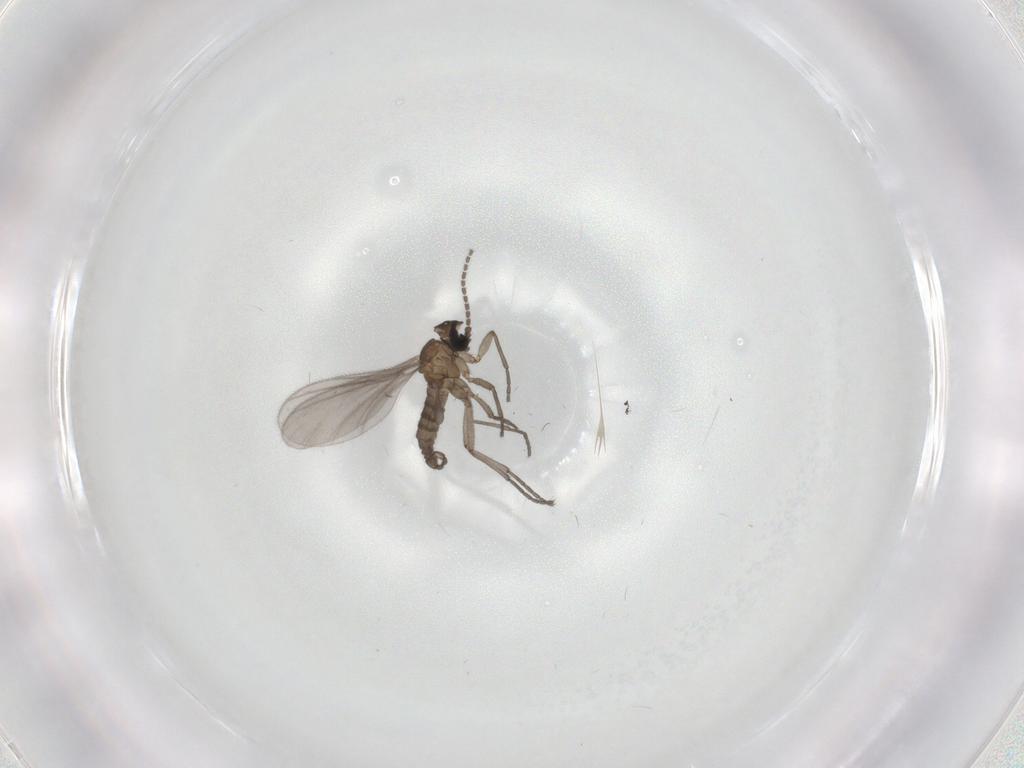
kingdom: Animalia
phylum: Arthropoda
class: Insecta
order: Diptera
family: Sciaridae
